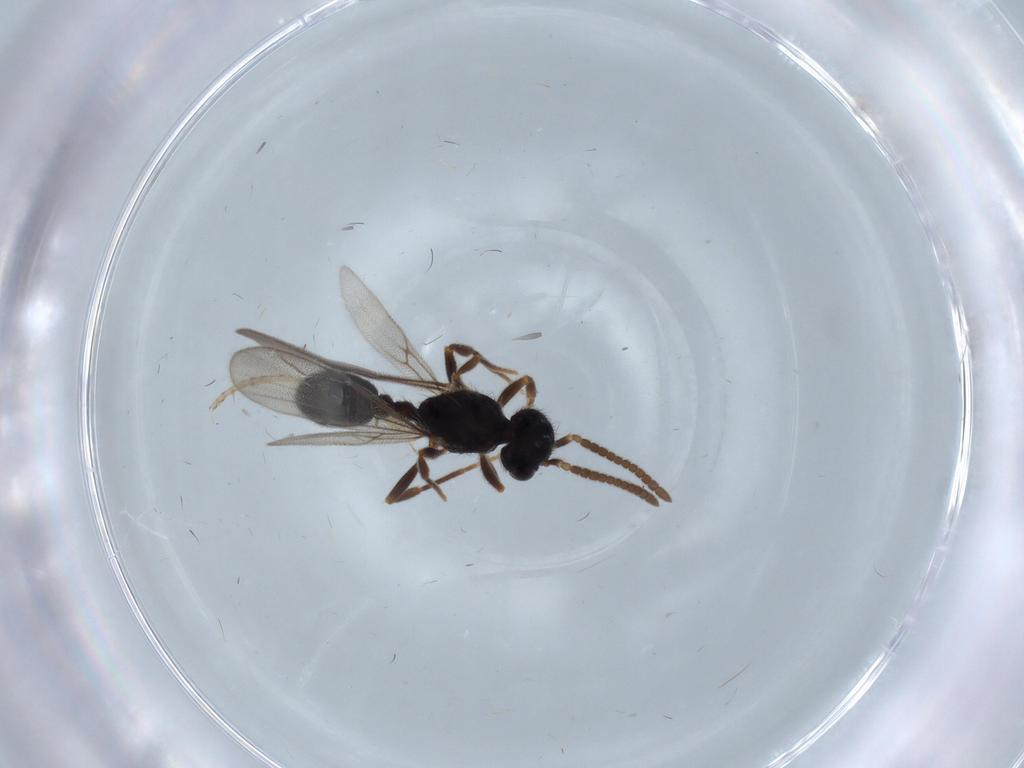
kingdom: Animalia
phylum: Arthropoda
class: Insecta
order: Hymenoptera
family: Formicidae
